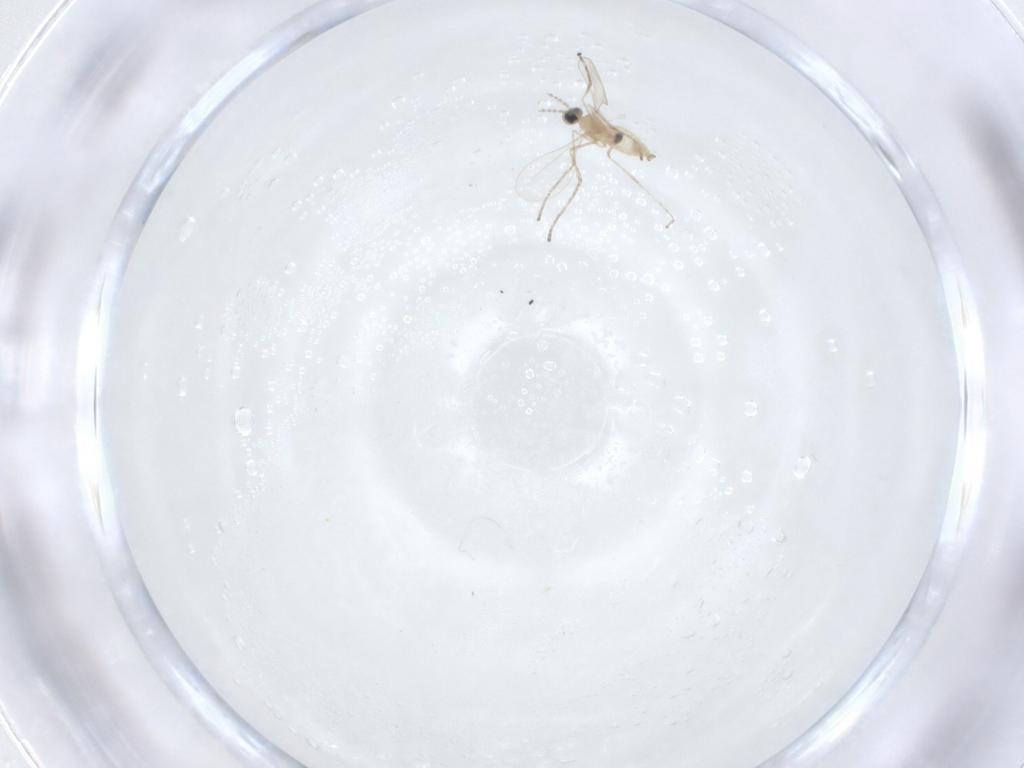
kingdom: Animalia
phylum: Arthropoda
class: Insecta
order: Diptera
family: Cecidomyiidae
